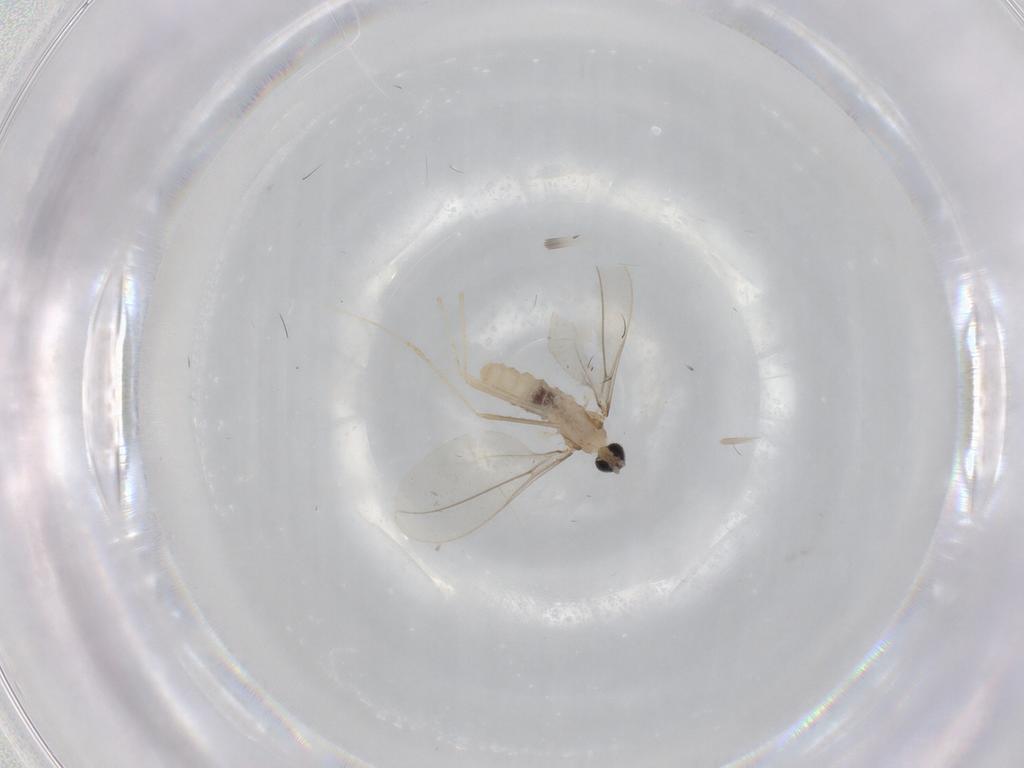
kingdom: Animalia
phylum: Arthropoda
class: Insecta
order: Diptera
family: Cecidomyiidae
